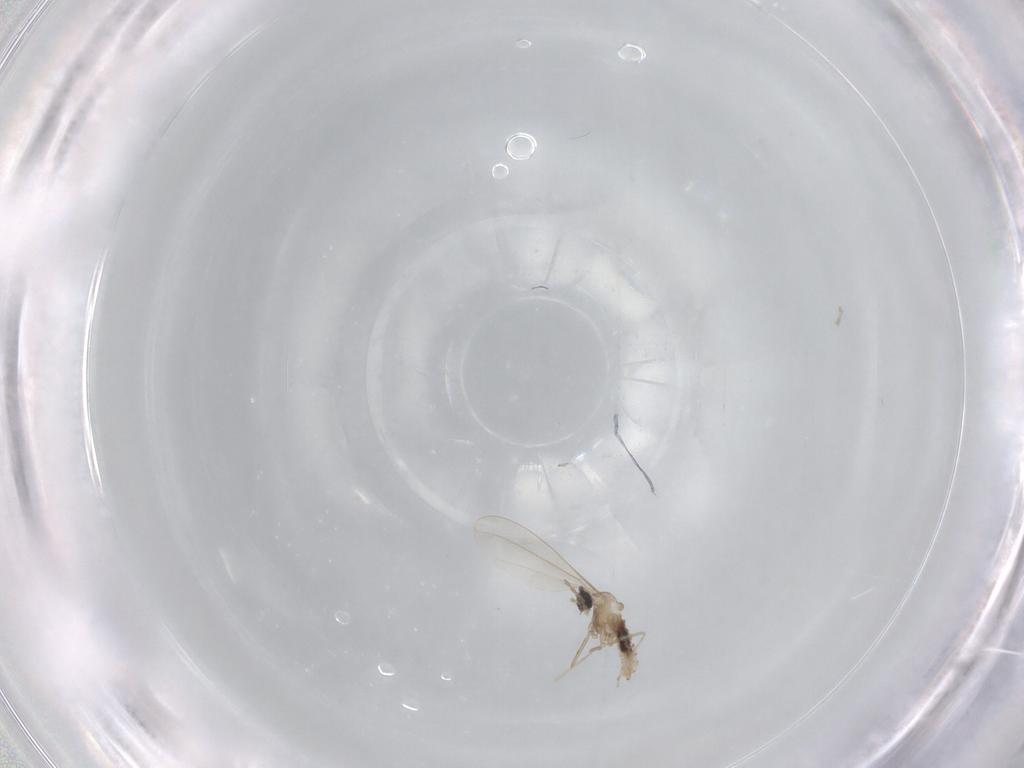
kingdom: Animalia
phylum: Arthropoda
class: Insecta
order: Diptera
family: Cecidomyiidae
